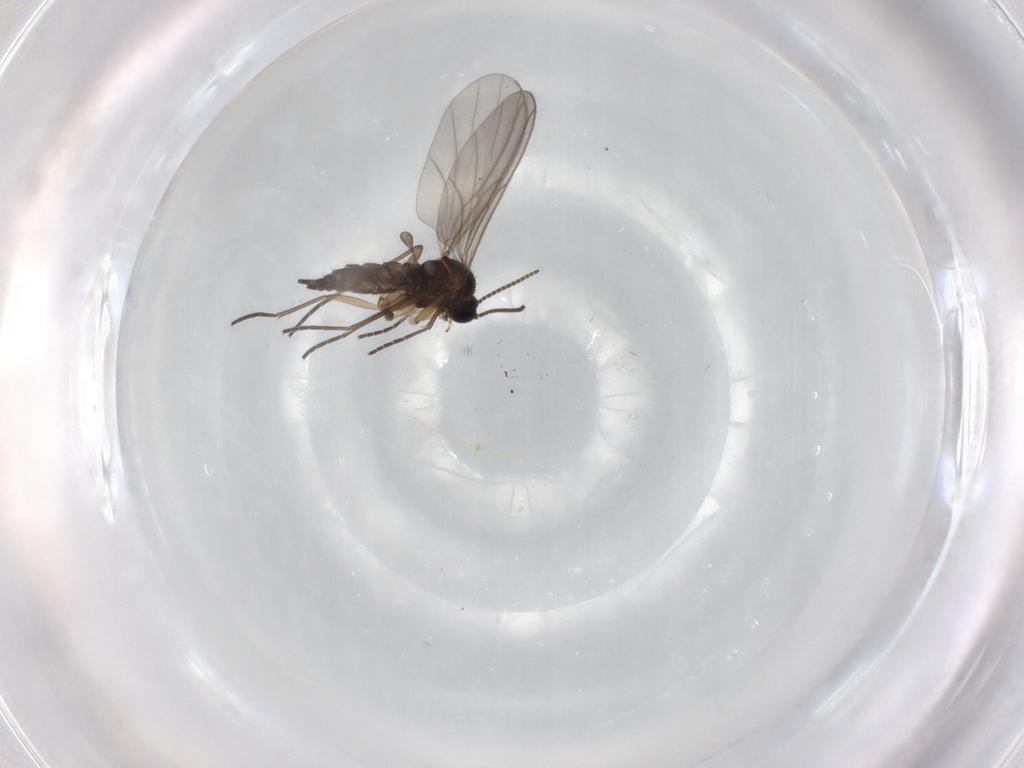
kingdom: Animalia
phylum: Arthropoda
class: Insecta
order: Diptera
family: Sciaridae
